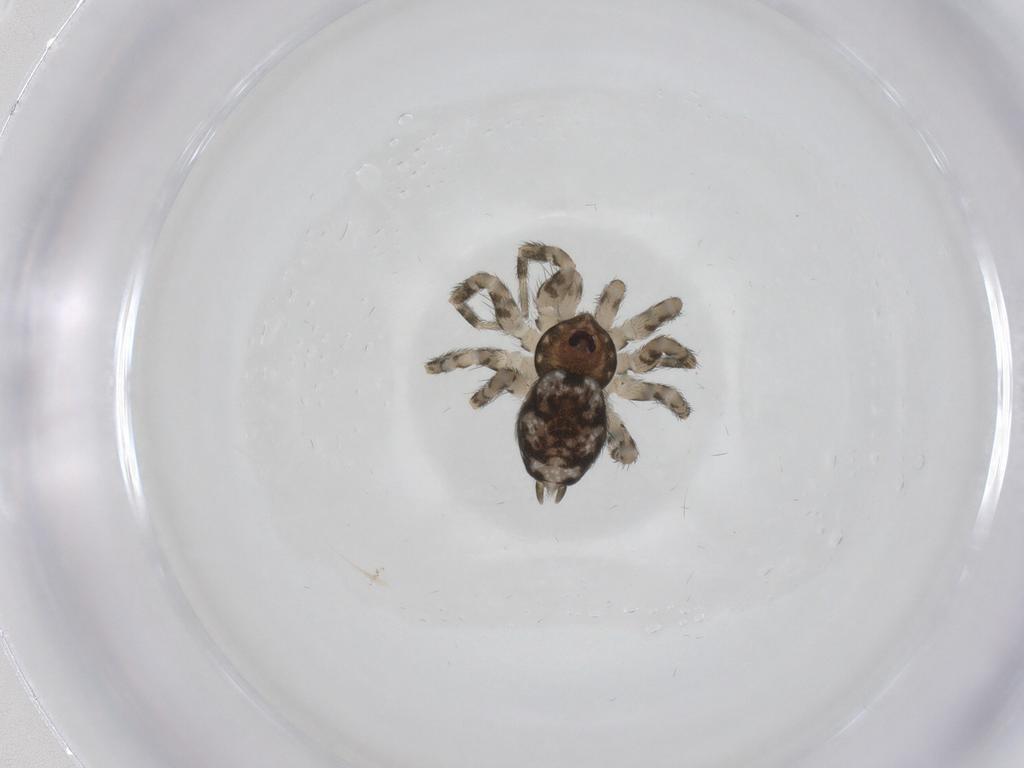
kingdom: Animalia
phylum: Arthropoda
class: Arachnida
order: Araneae
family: Oecobiidae
